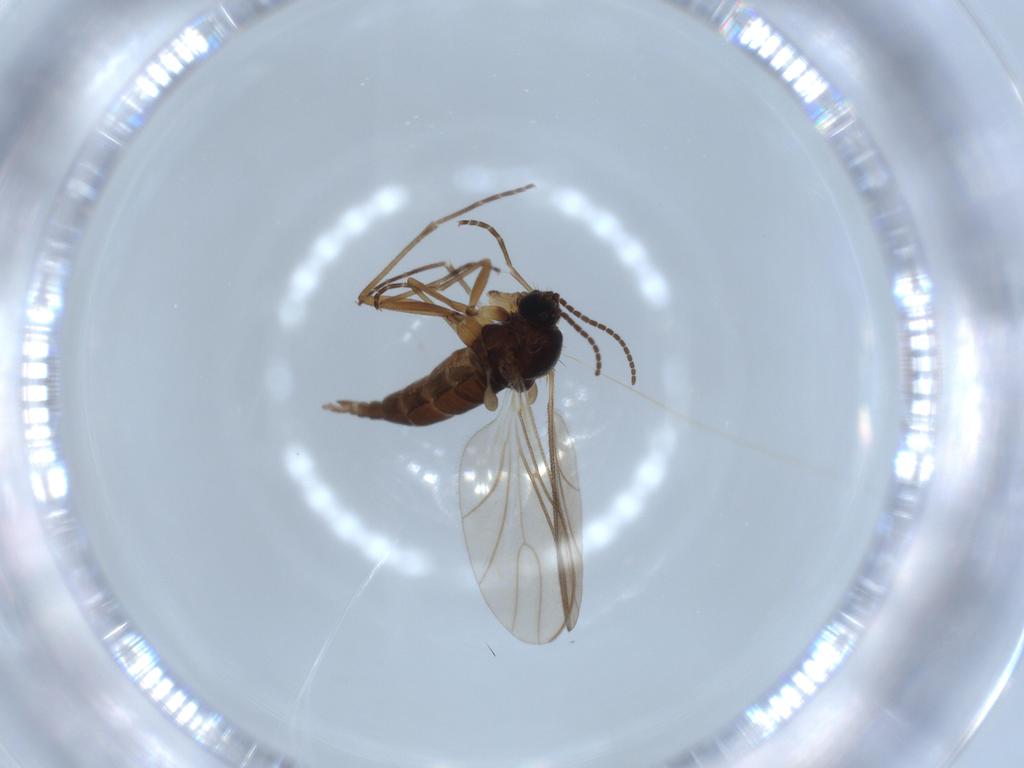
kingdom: Animalia
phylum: Arthropoda
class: Insecta
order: Diptera
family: Sciaridae
